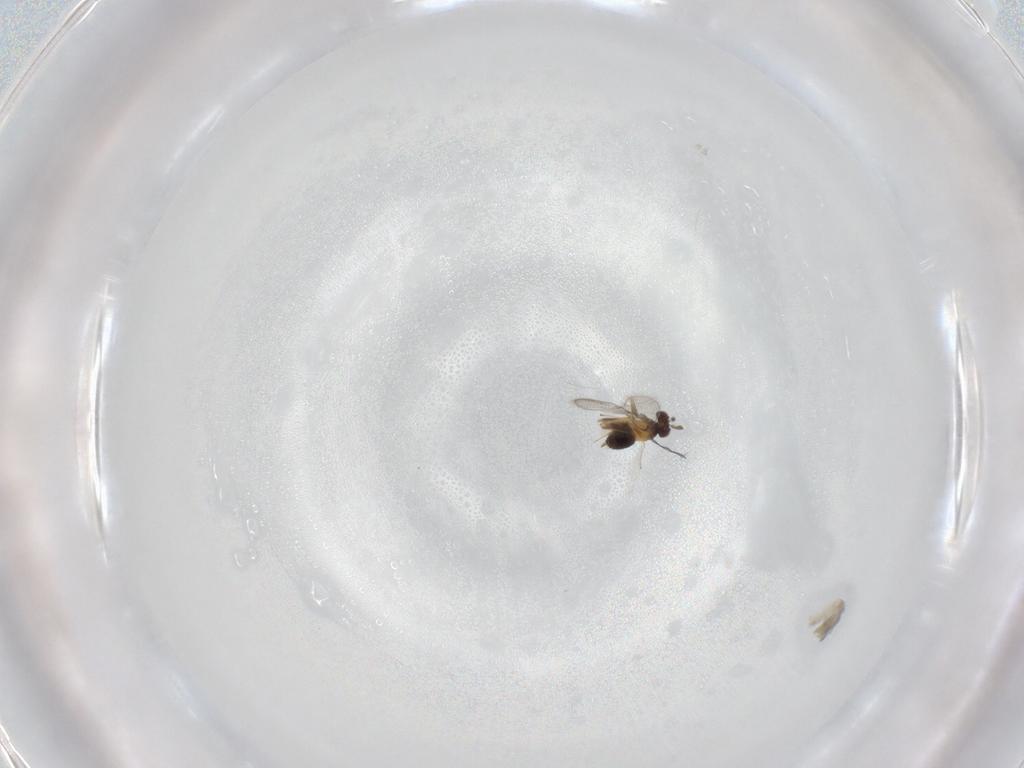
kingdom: Animalia
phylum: Arthropoda
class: Insecta
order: Hymenoptera
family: Trichogrammatidae
